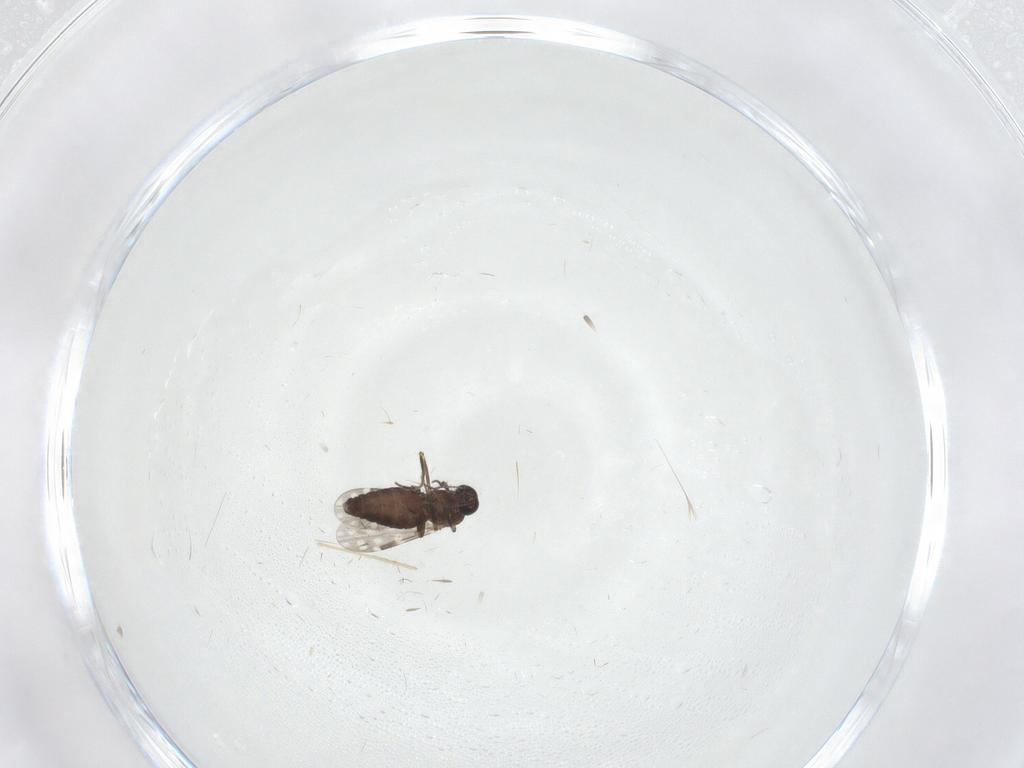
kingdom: Animalia
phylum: Arthropoda
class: Insecta
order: Diptera
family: Ceratopogonidae
